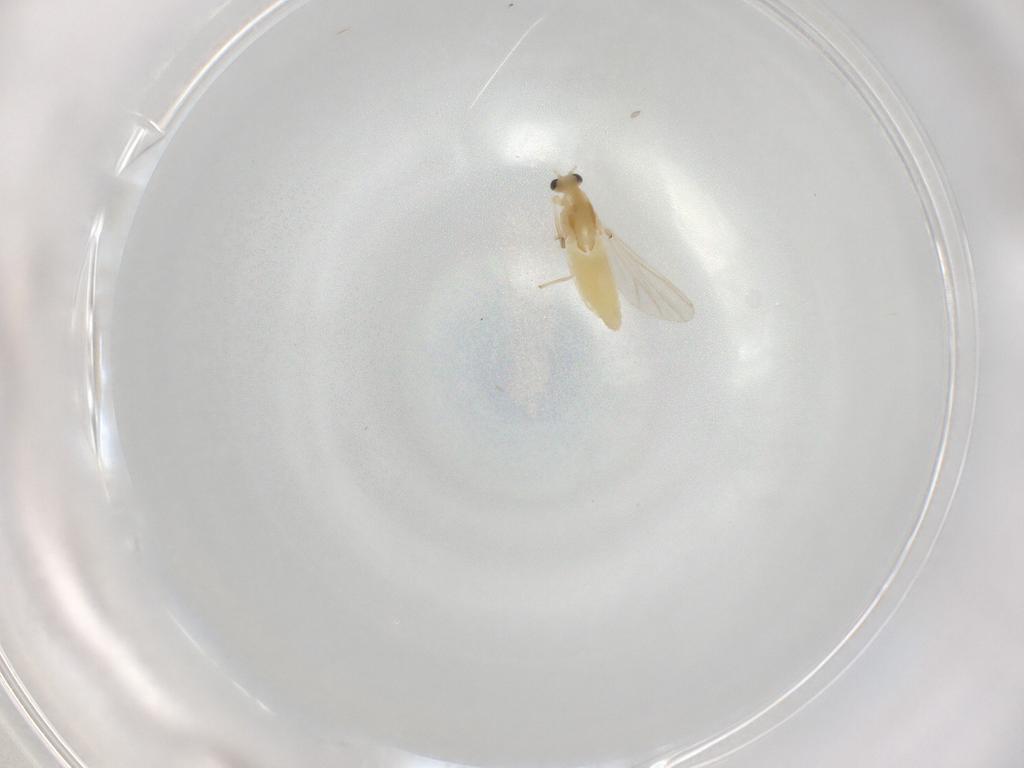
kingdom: Animalia
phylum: Arthropoda
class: Insecta
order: Diptera
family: Chironomidae
